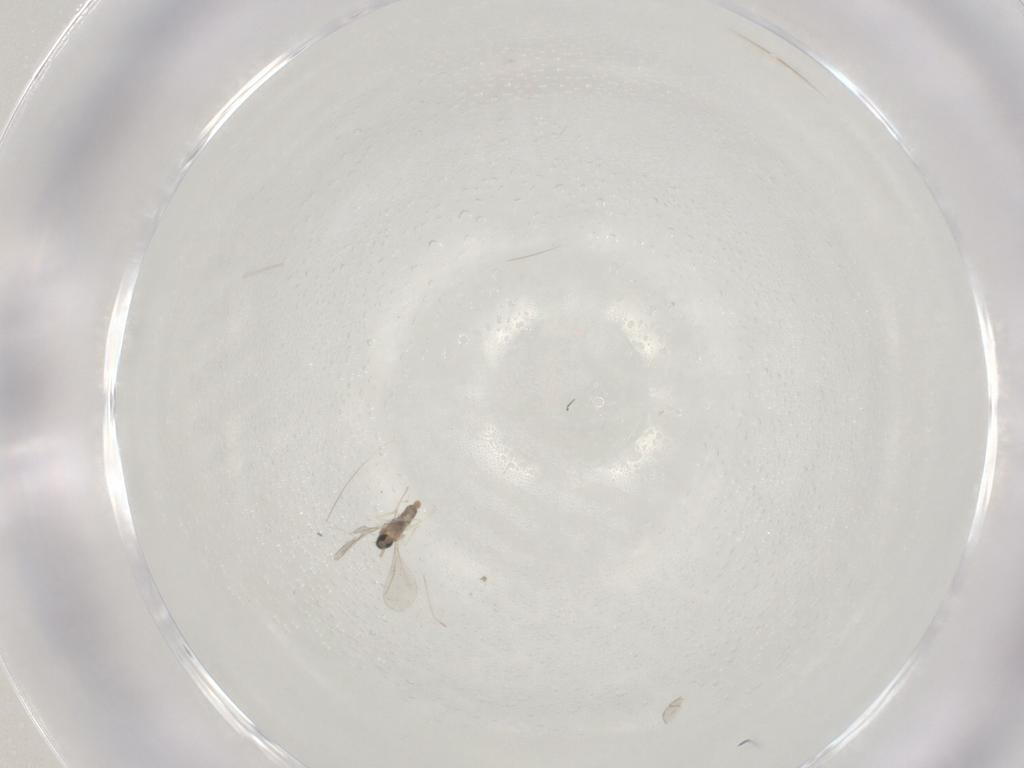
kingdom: Animalia
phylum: Arthropoda
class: Insecta
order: Diptera
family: Cecidomyiidae
